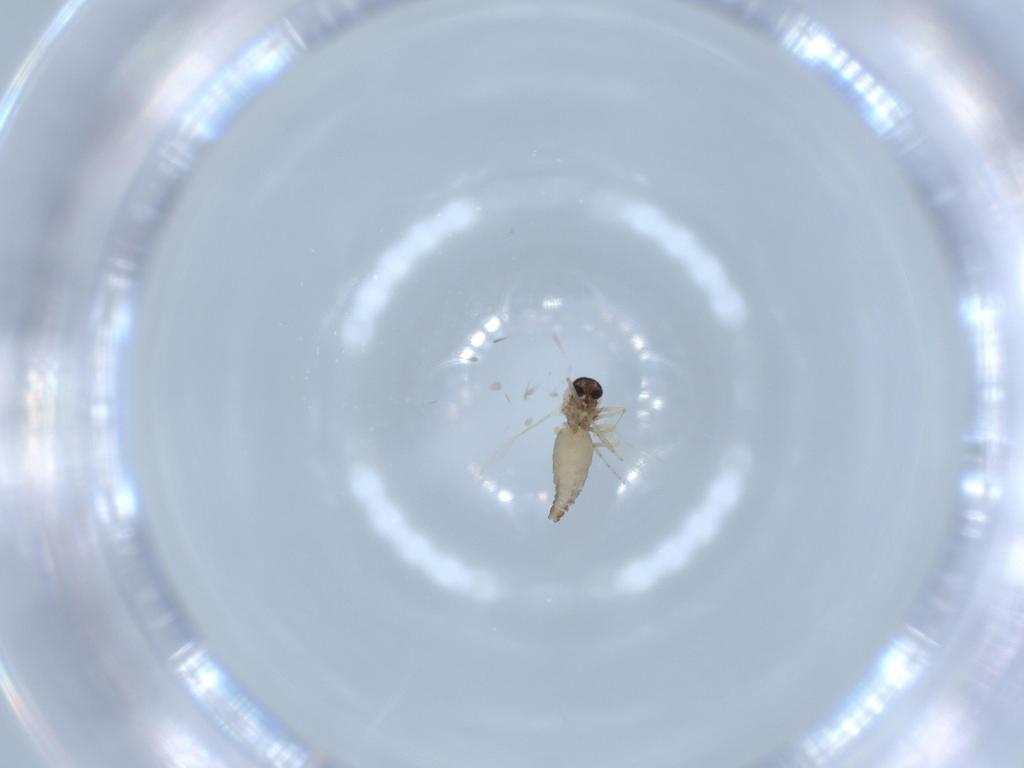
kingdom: Animalia
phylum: Arthropoda
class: Insecta
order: Diptera
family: Ceratopogonidae
